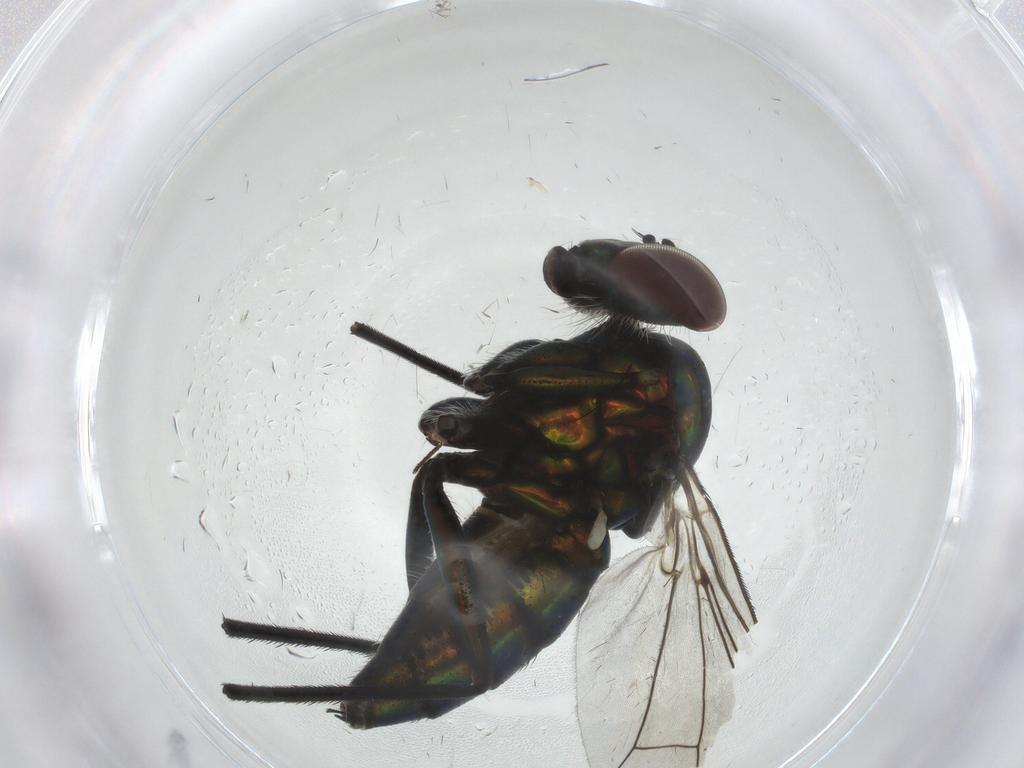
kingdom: Animalia
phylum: Arthropoda
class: Insecta
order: Diptera
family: Dolichopodidae
